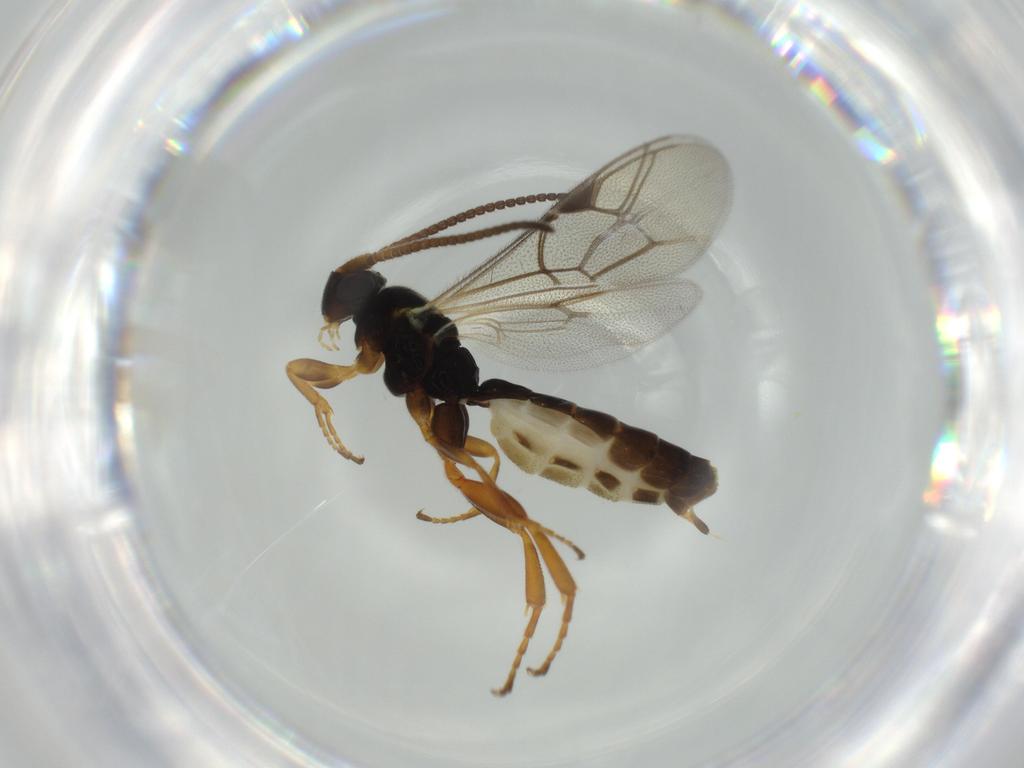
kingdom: Animalia
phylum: Arthropoda
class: Insecta
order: Hymenoptera
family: Ichneumonidae
